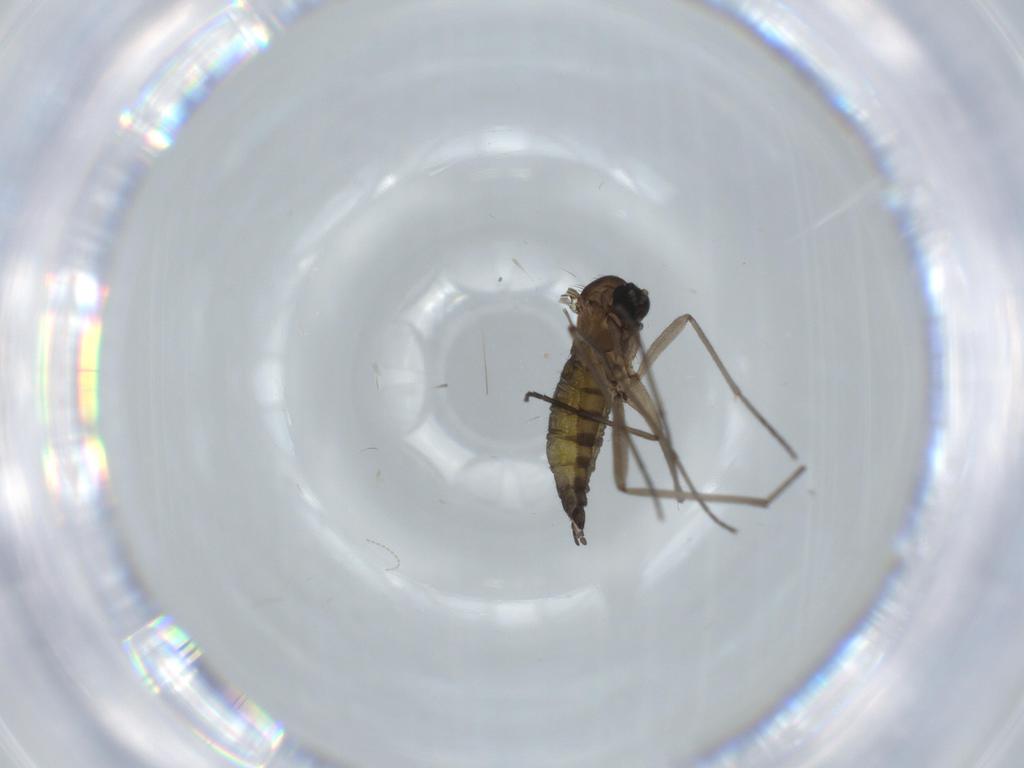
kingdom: Animalia
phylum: Arthropoda
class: Insecta
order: Diptera
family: Sciaridae
